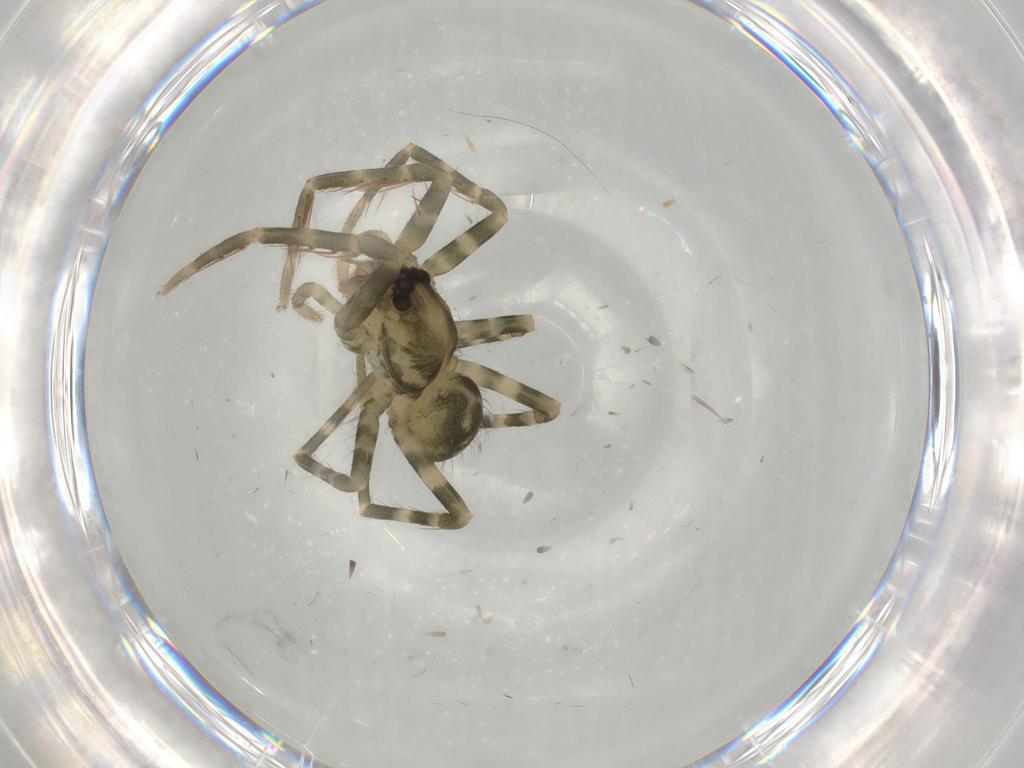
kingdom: Animalia
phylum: Arthropoda
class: Arachnida
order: Araneae
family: Ctenidae
